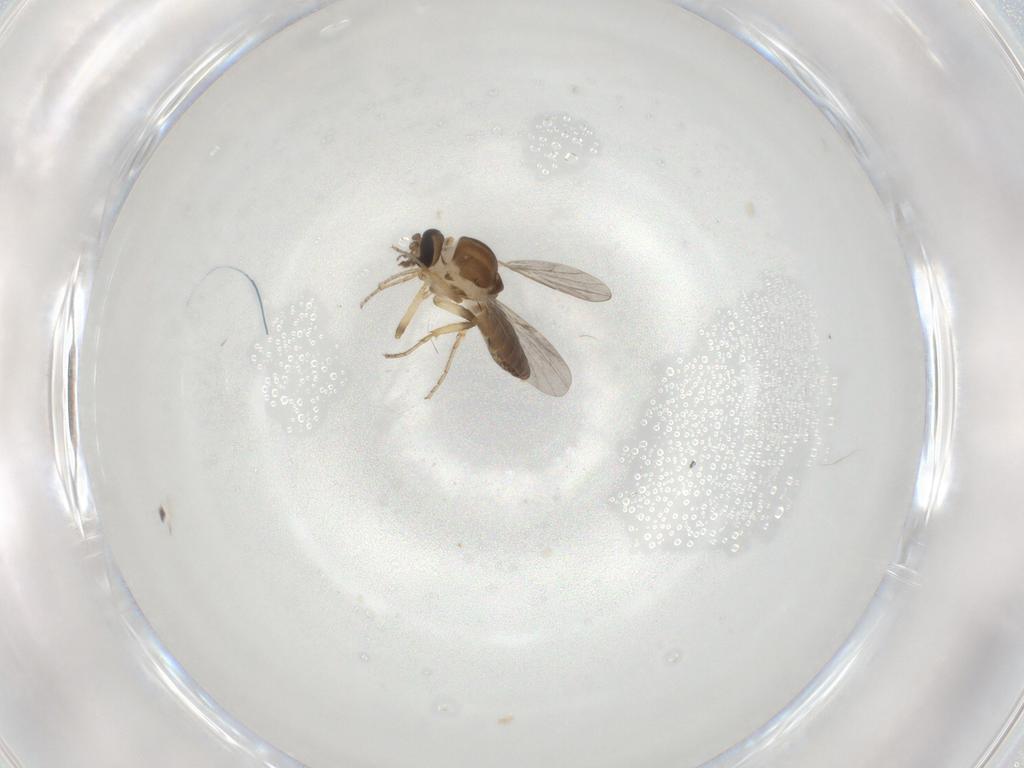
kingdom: Animalia
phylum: Arthropoda
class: Insecta
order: Diptera
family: Ceratopogonidae
